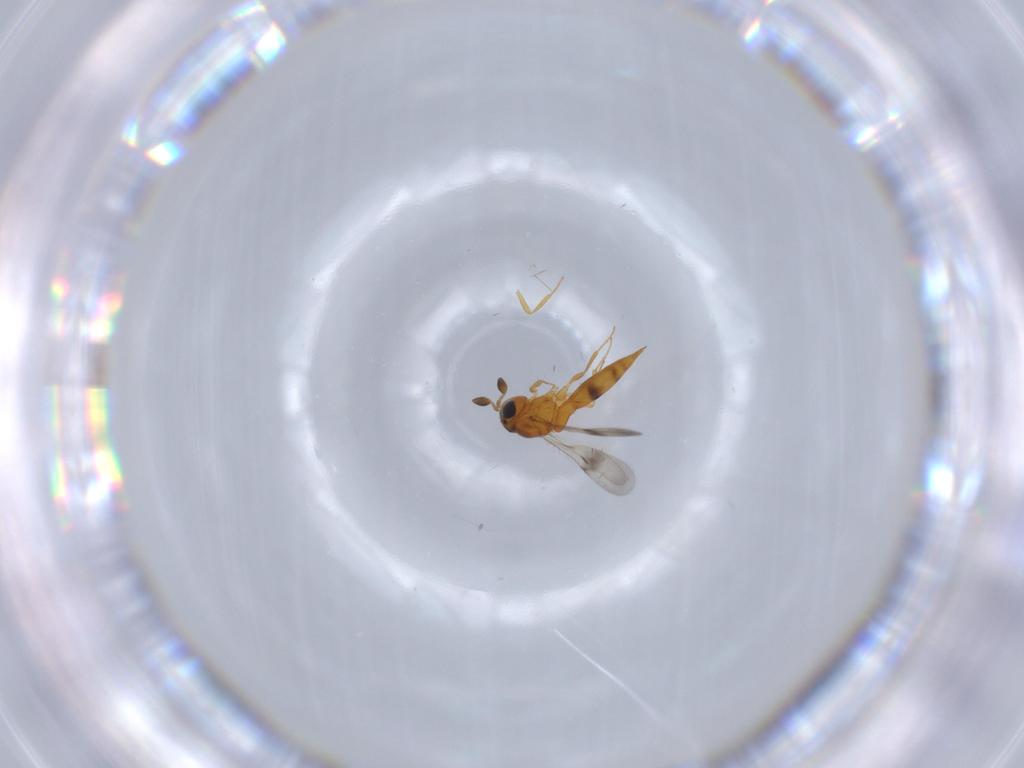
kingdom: Animalia
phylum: Arthropoda
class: Insecta
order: Hymenoptera
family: Scelionidae
